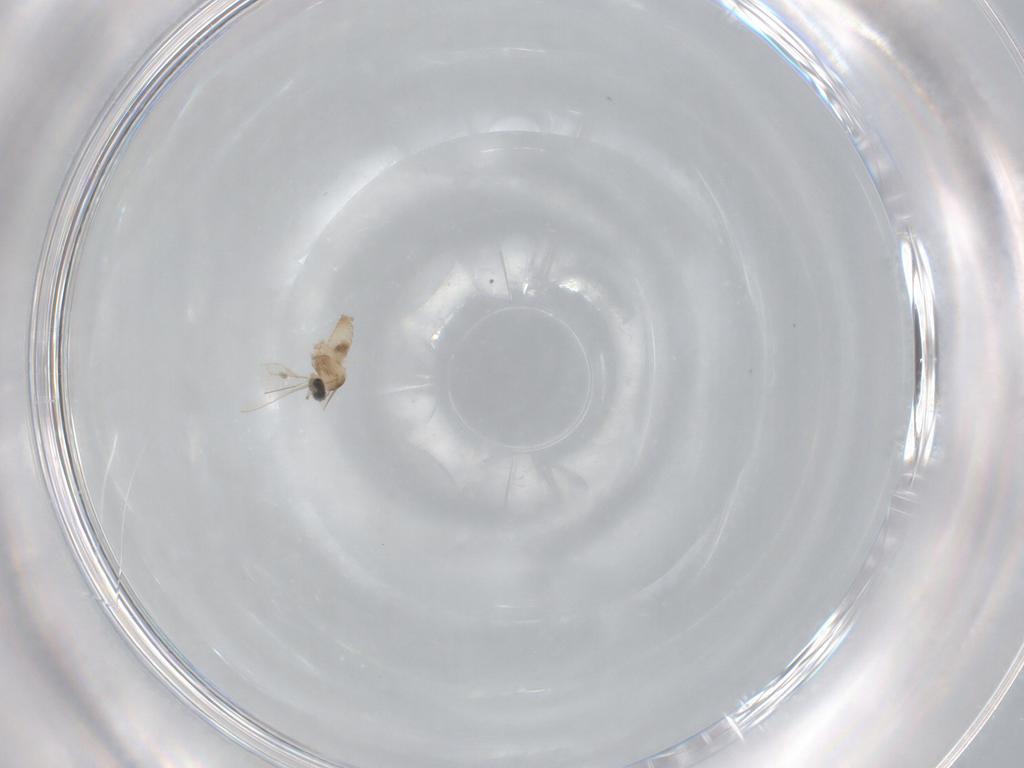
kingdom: Animalia
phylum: Arthropoda
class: Insecta
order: Diptera
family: Cecidomyiidae
